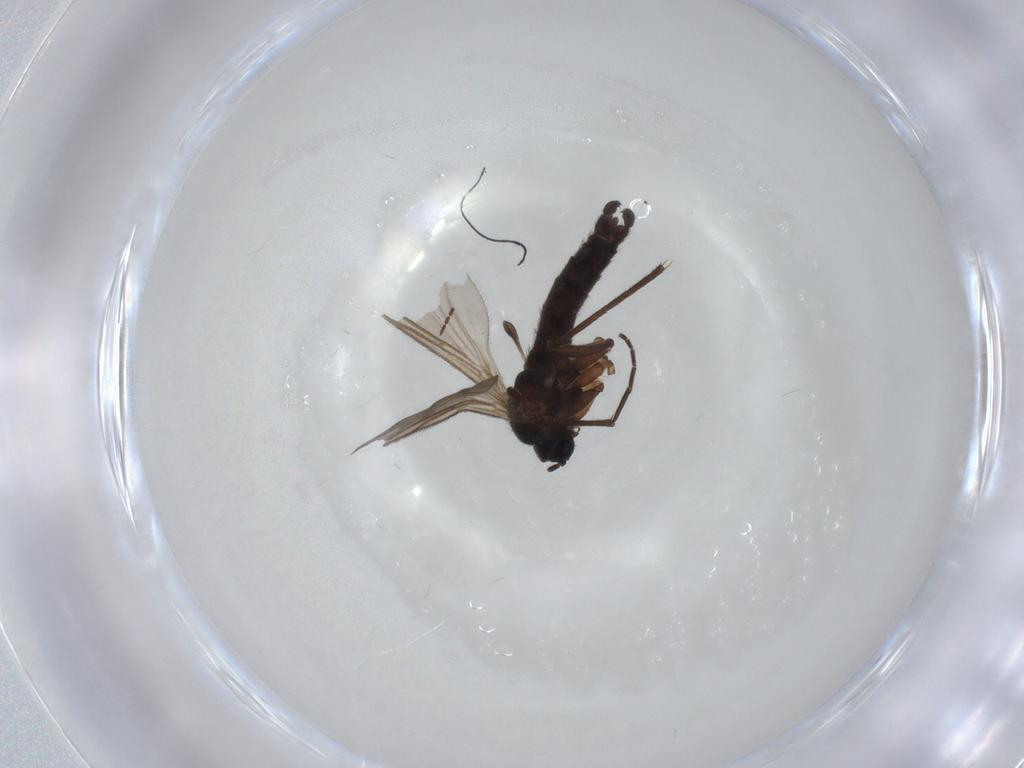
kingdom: Animalia
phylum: Arthropoda
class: Insecta
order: Diptera
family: Sciaridae
